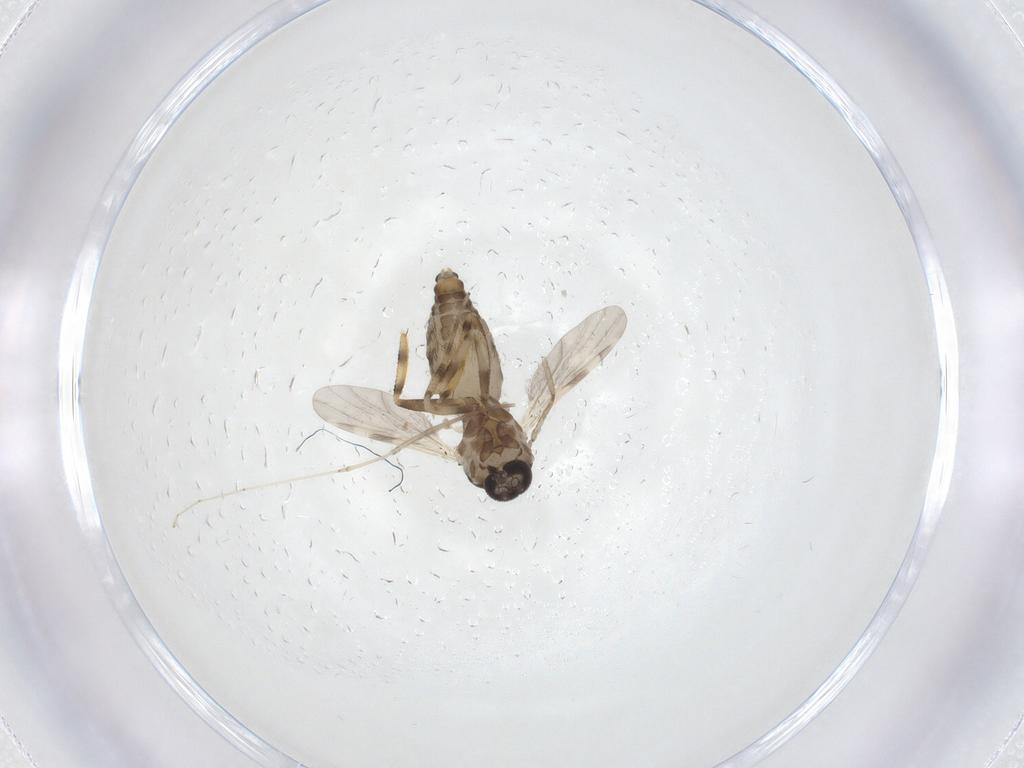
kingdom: Animalia
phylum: Arthropoda
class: Insecta
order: Diptera
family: Ceratopogonidae
